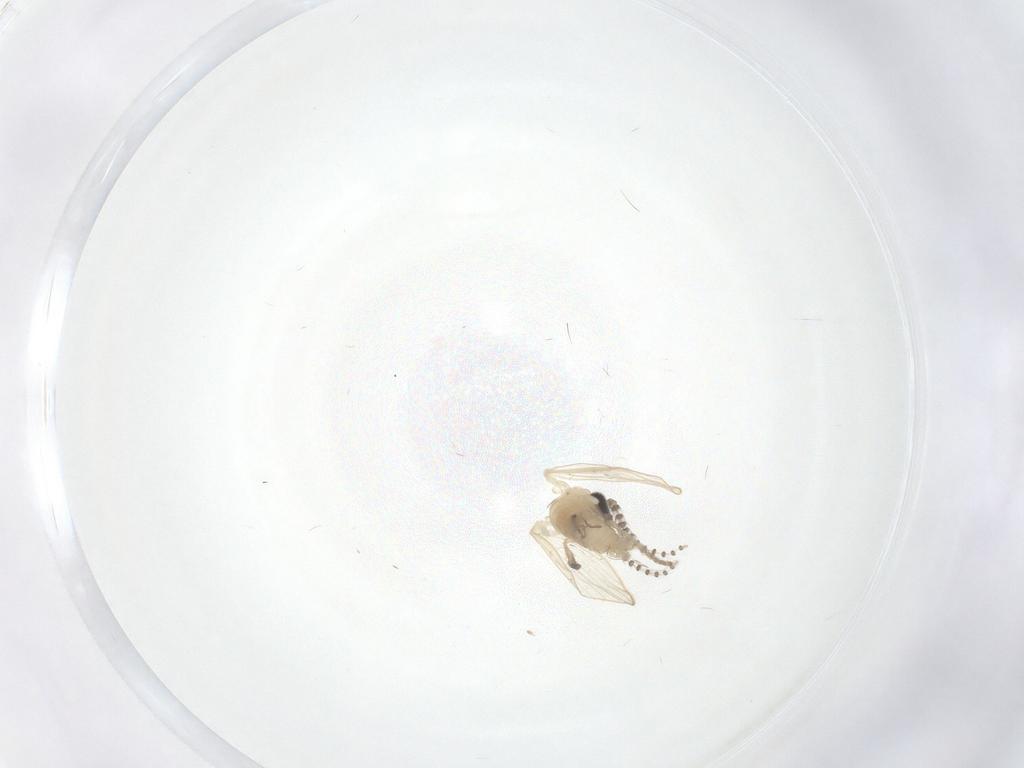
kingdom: Animalia
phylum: Arthropoda
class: Insecta
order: Diptera
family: Psychodidae
